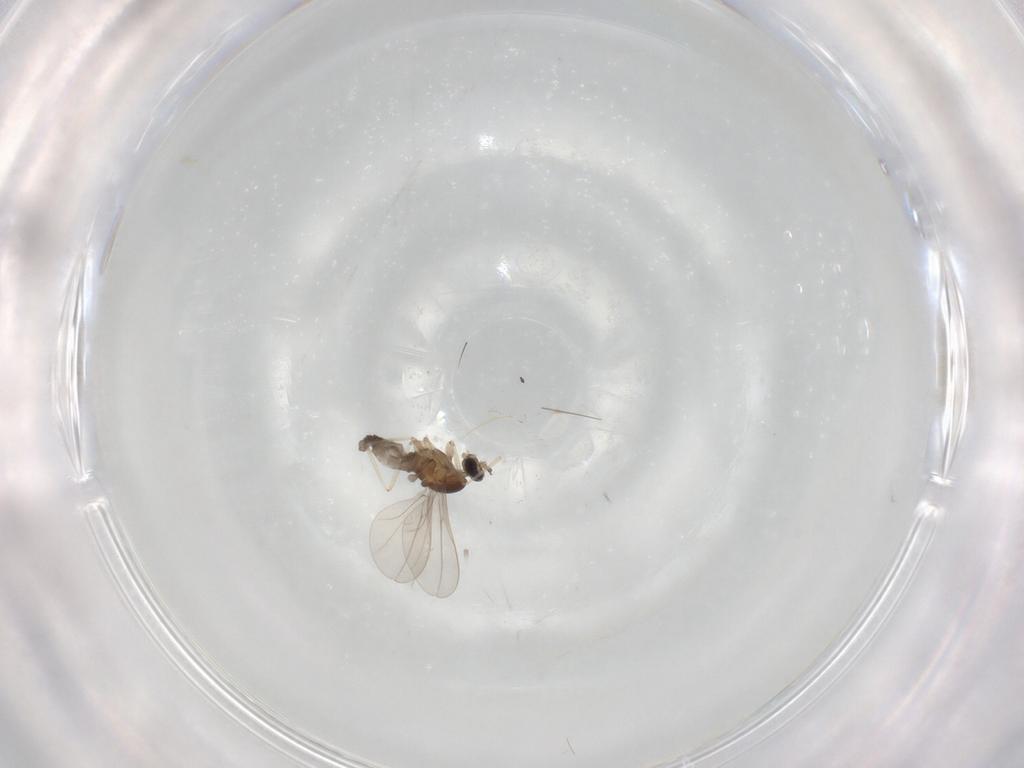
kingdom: Animalia
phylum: Arthropoda
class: Insecta
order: Diptera
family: Cecidomyiidae
